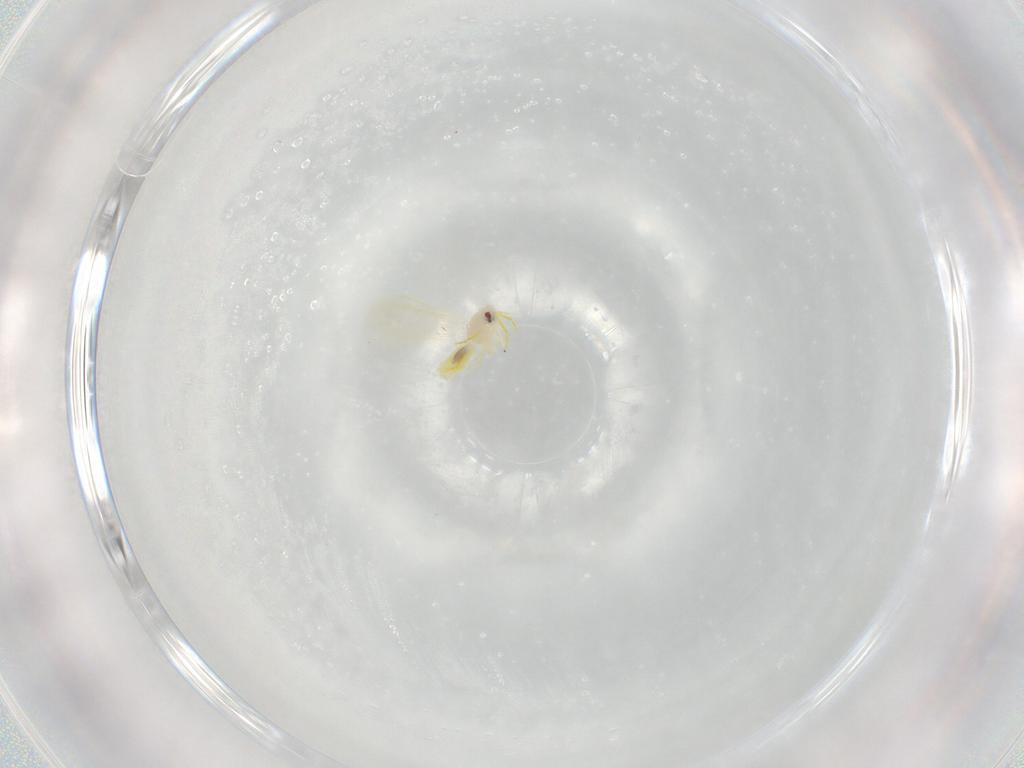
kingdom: Animalia
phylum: Arthropoda
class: Insecta
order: Hemiptera
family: Aleyrodidae
